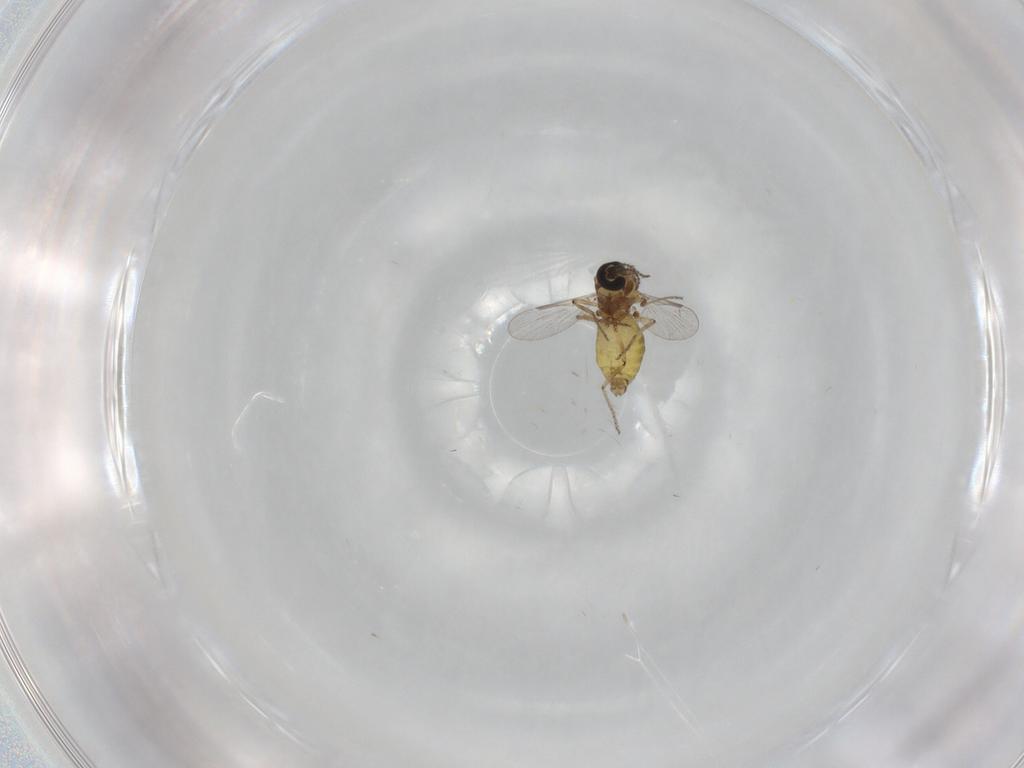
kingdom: Animalia
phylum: Arthropoda
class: Insecta
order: Diptera
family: Ceratopogonidae
